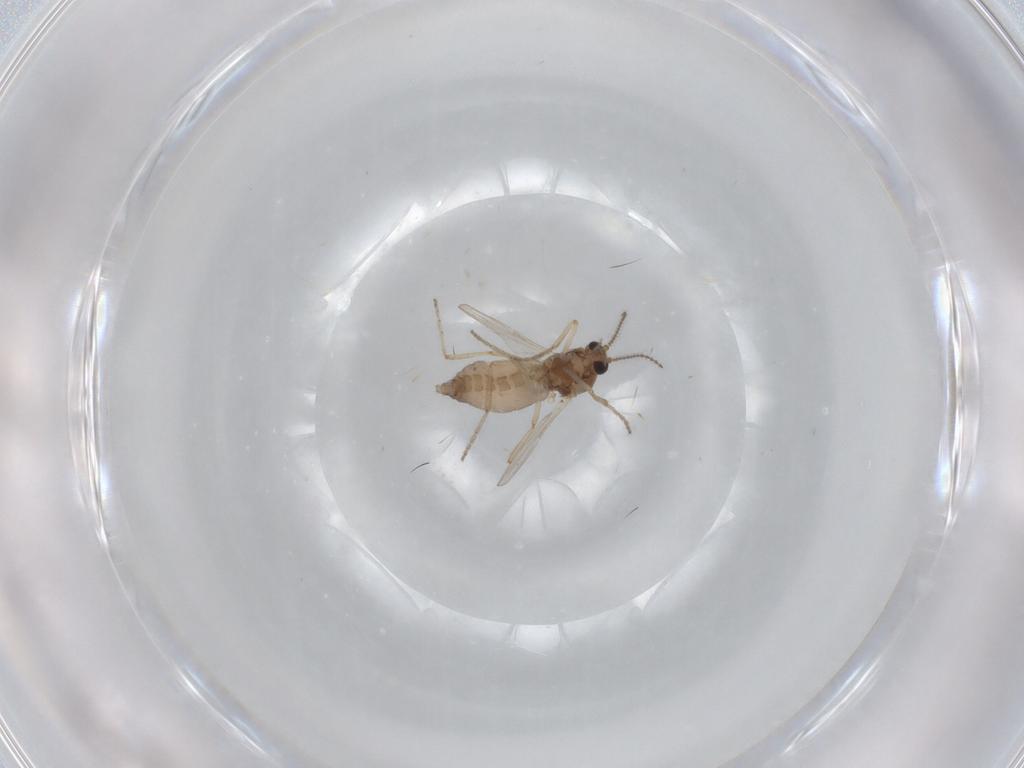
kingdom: Animalia
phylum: Arthropoda
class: Insecta
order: Diptera
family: Ceratopogonidae
